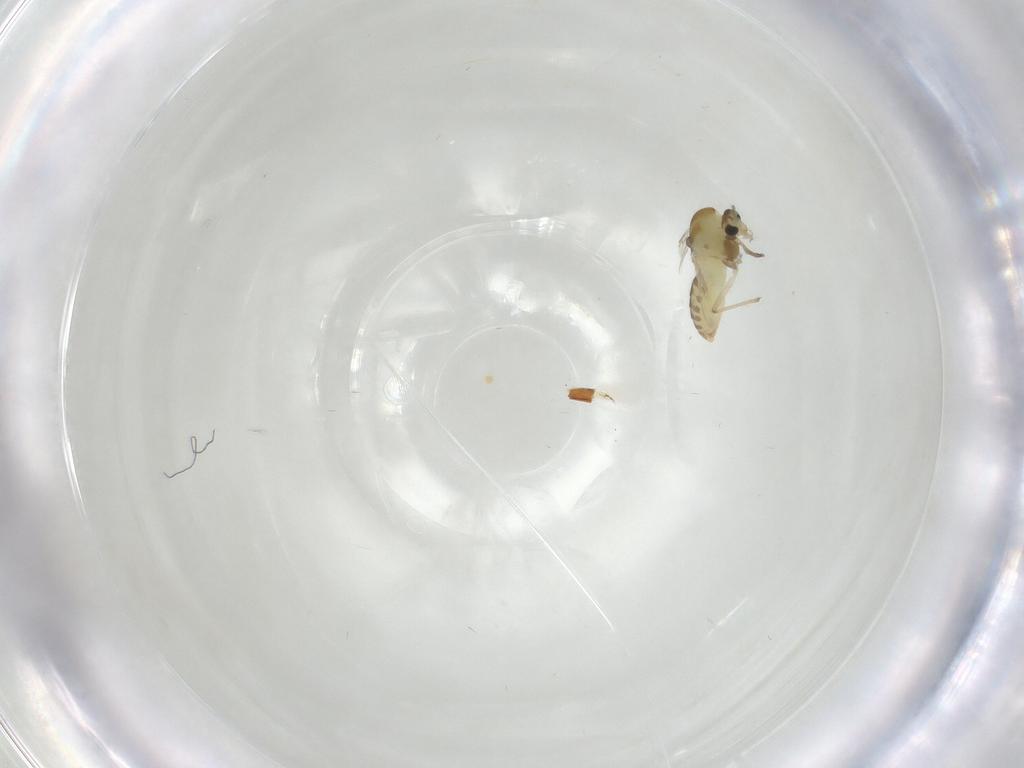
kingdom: Animalia
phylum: Arthropoda
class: Insecta
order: Diptera
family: Chironomidae
